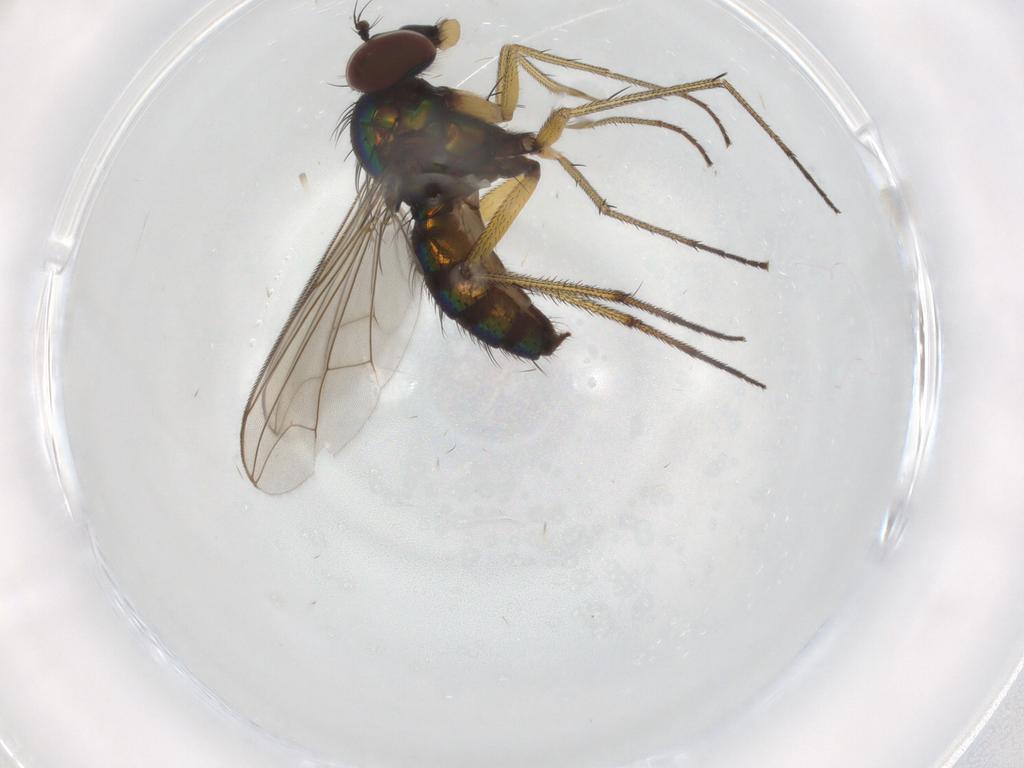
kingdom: Animalia
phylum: Arthropoda
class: Insecta
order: Diptera
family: Dolichopodidae
